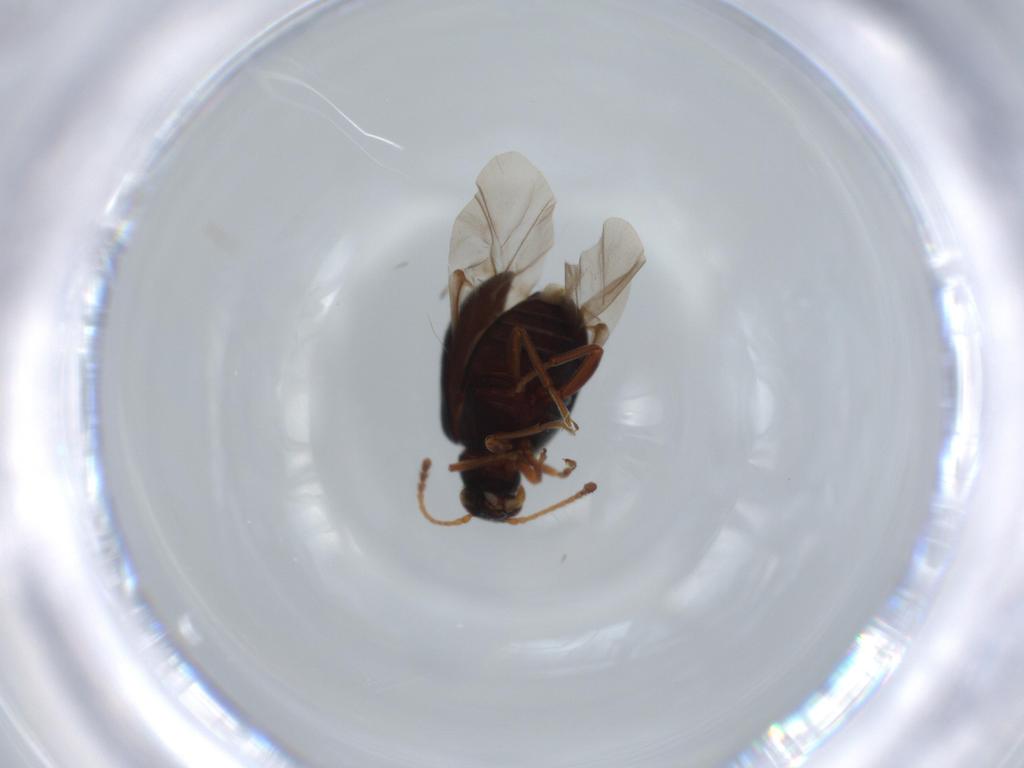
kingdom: Animalia
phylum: Arthropoda
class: Insecta
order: Coleoptera
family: Aderidae
